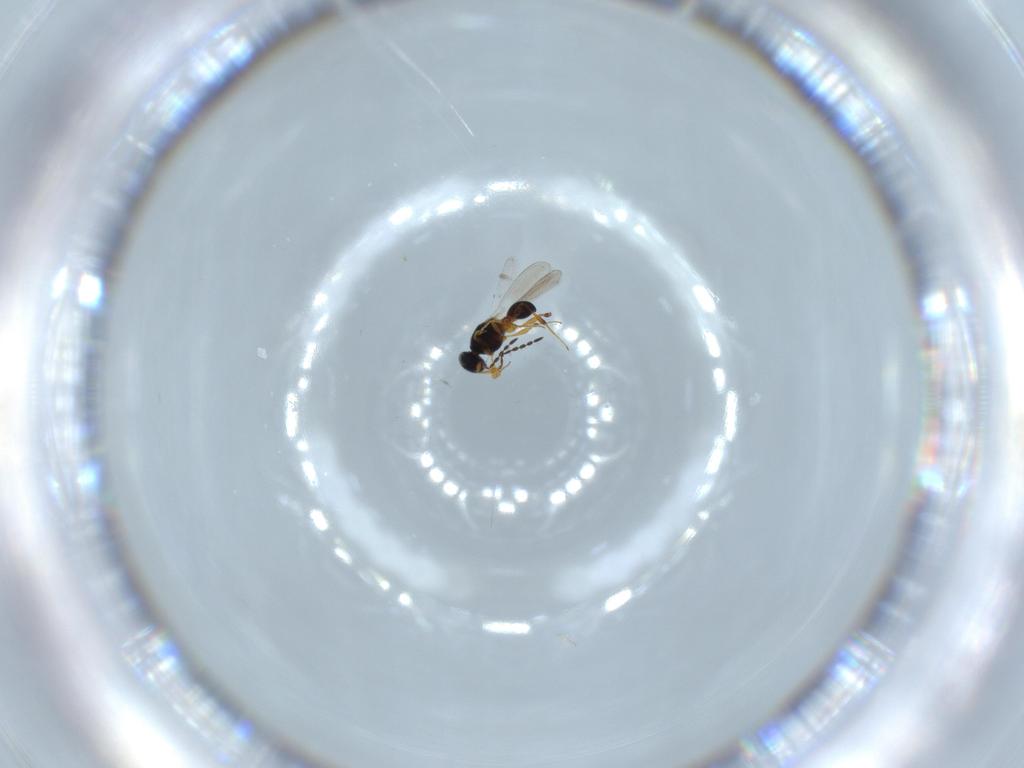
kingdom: Animalia
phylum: Arthropoda
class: Insecta
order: Hymenoptera
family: Platygastridae
